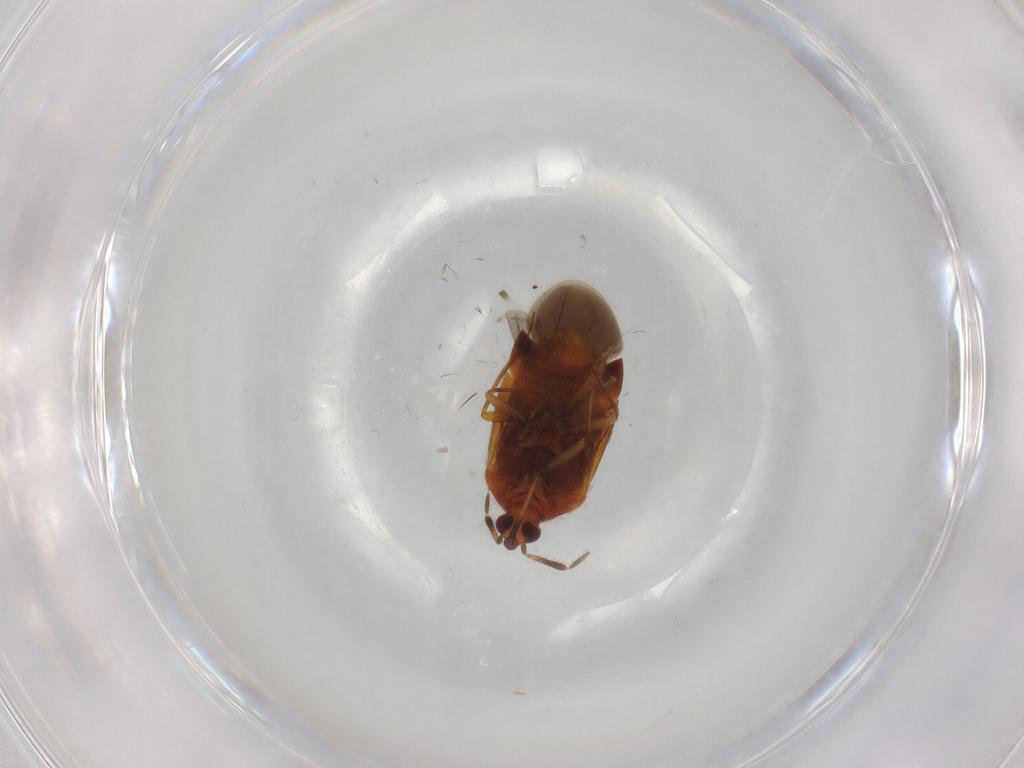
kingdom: Animalia
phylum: Arthropoda
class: Insecta
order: Hemiptera
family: Anthocoridae
